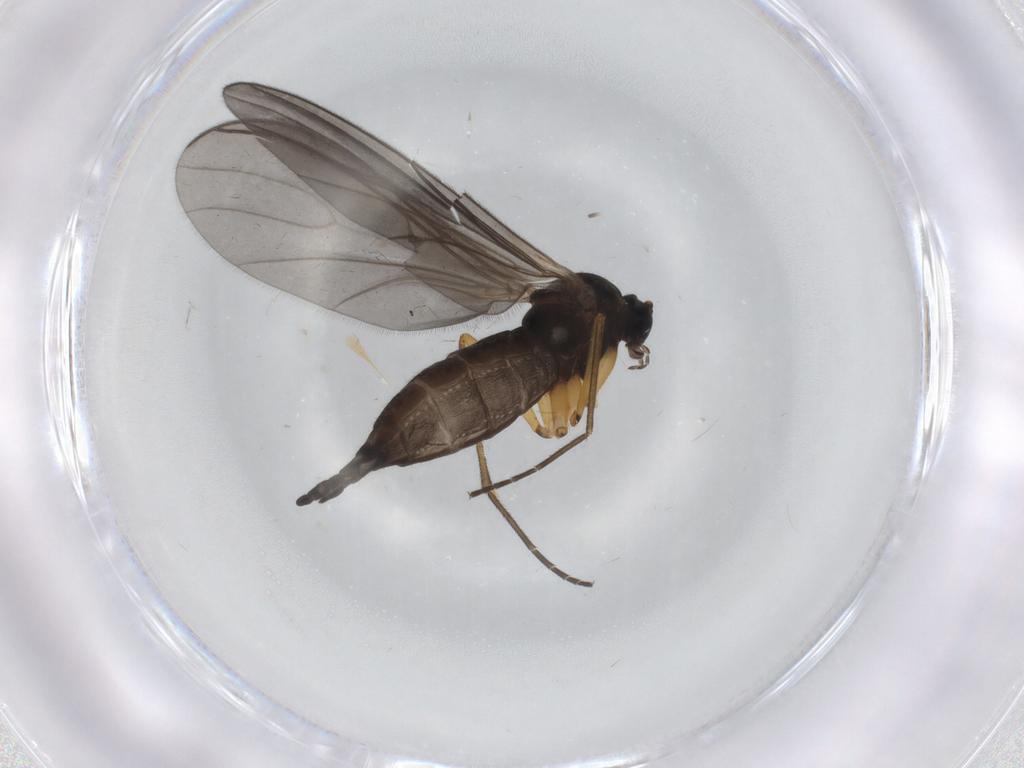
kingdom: Animalia
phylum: Arthropoda
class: Insecta
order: Diptera
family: Sciaridae
